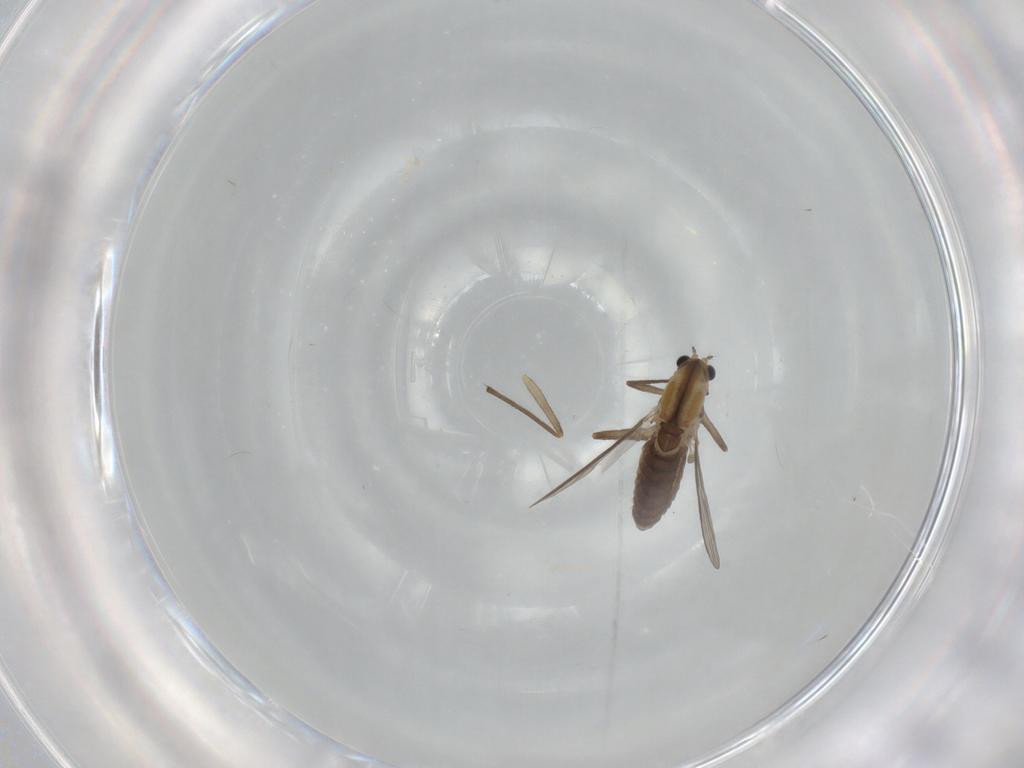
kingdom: Animalia
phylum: Arthropoda
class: Insecta
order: Diptera
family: Chironomidae
